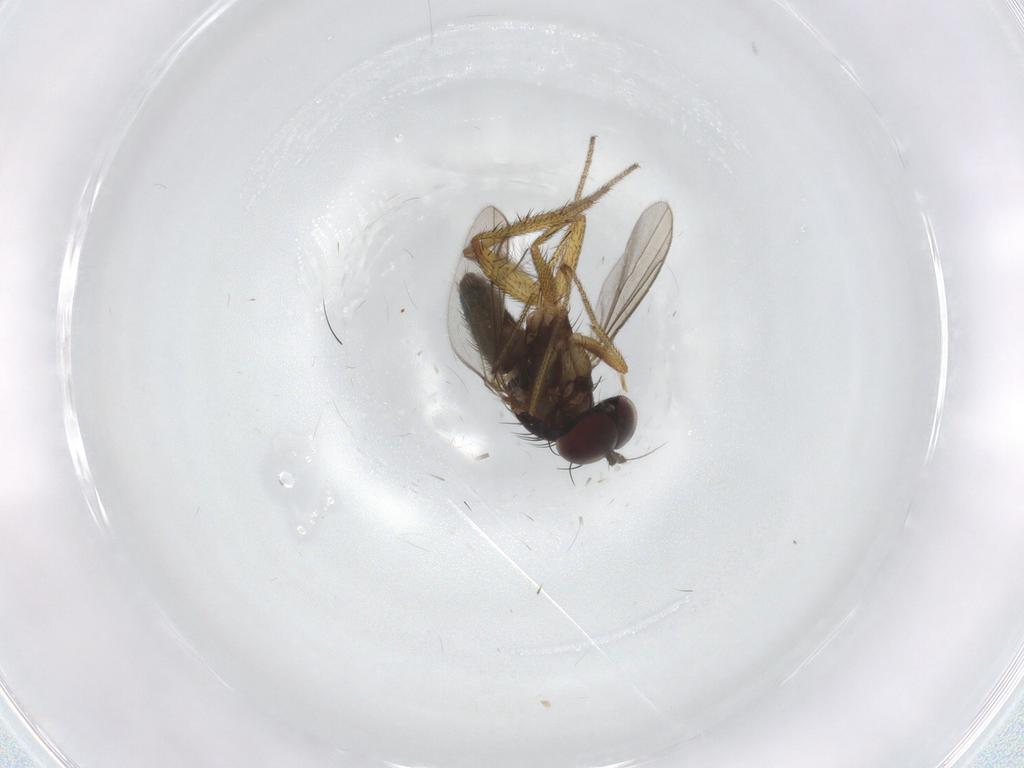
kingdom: Animalia
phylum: Arthropoda
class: Insecta
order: Diptera
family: Dolichopodidae
